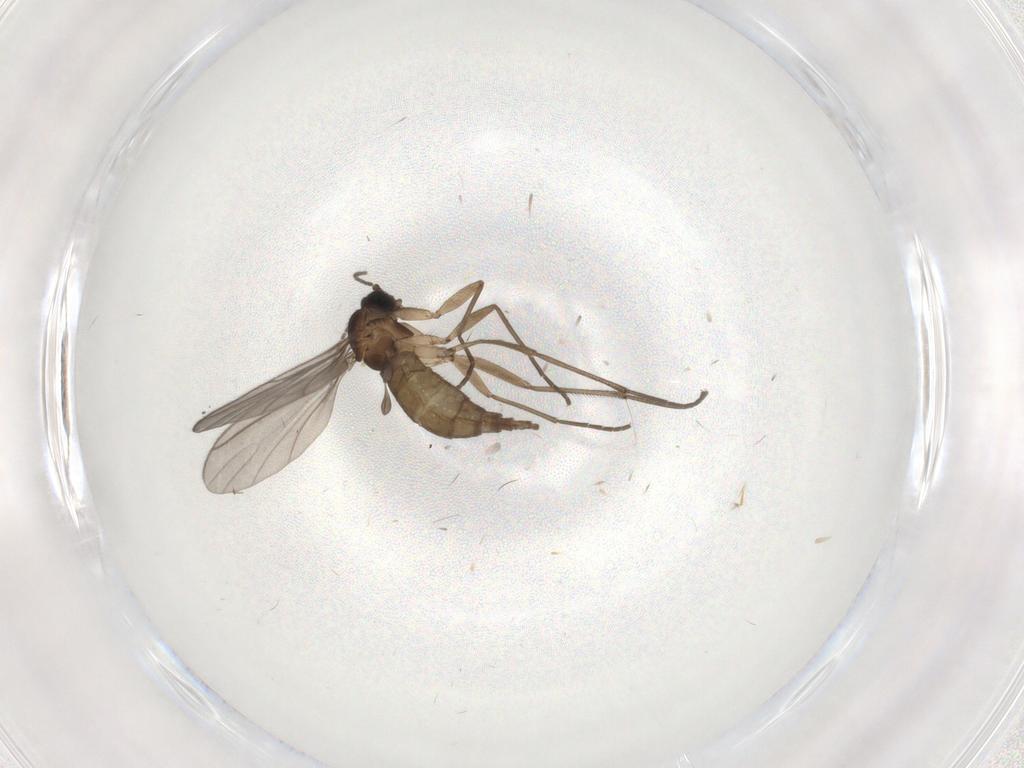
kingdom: Animalia
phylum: Arthropoda
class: Insecta
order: Diptera
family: Sciaridae
